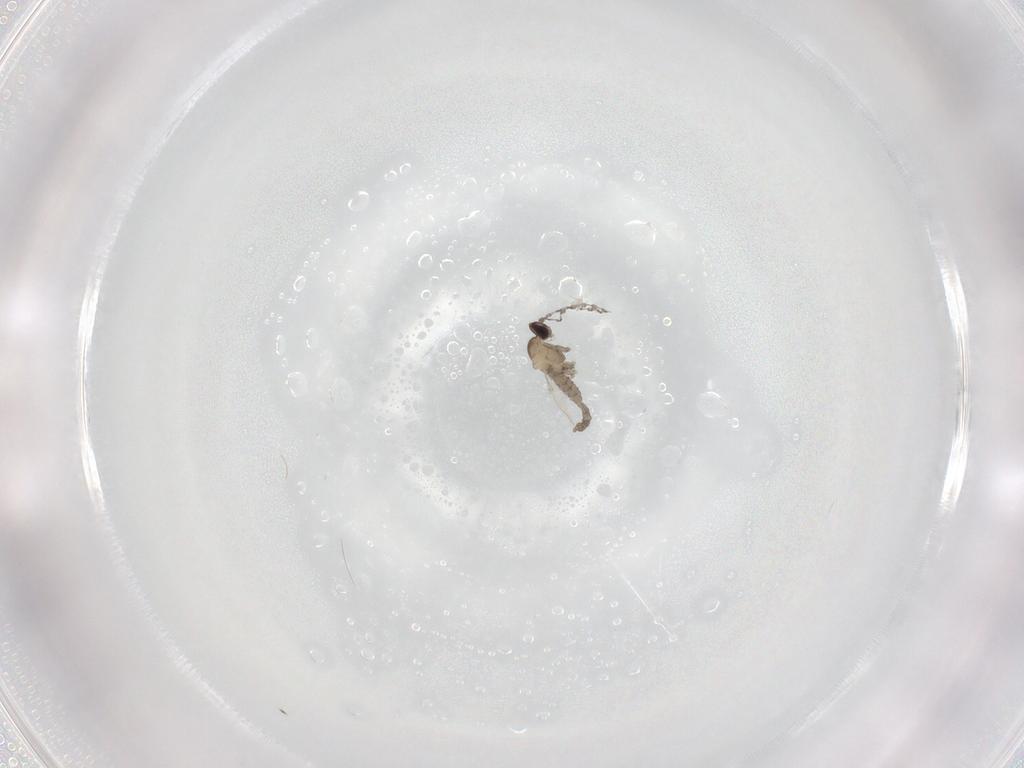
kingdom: Animalia
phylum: Arthropoda
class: Insecta
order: Diptera
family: Cecidomyiidae
